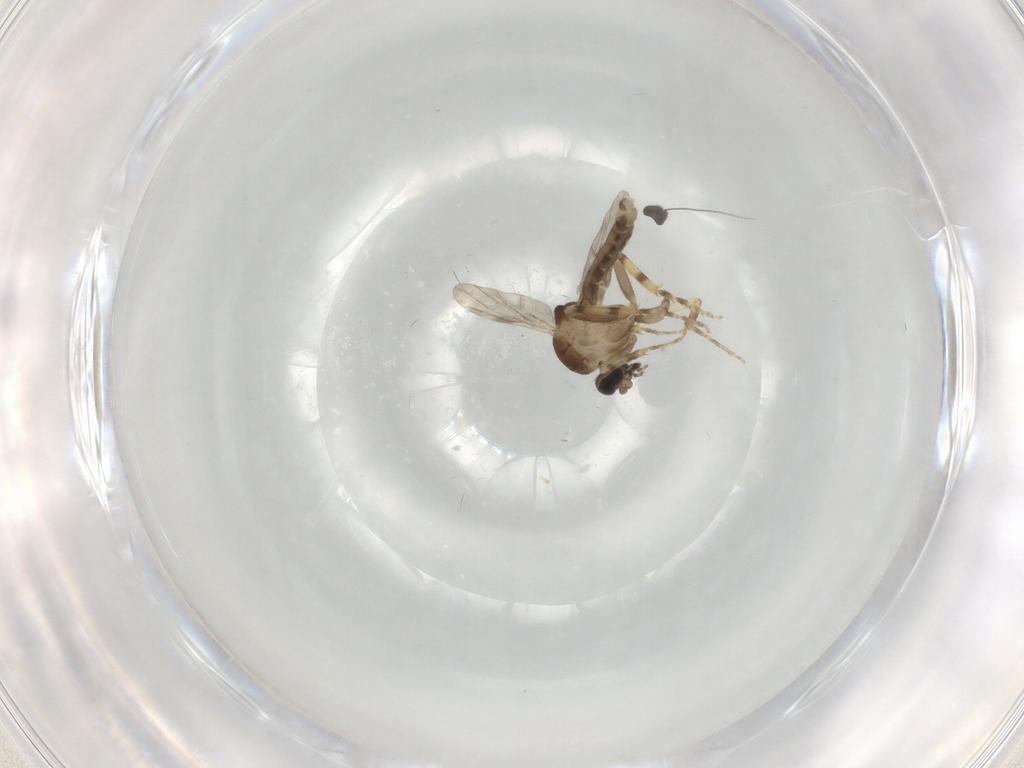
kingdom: Animalia
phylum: Arthropoda
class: Insecta
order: Diptera
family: Ceratopogonidae
